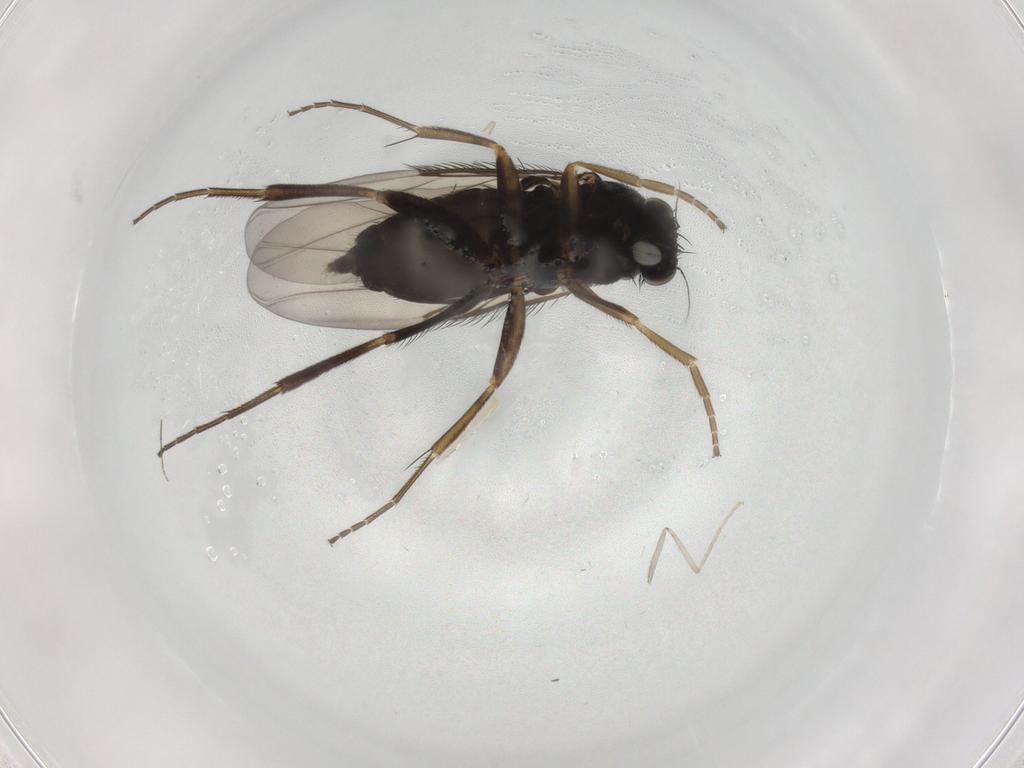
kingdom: Animalia
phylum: Arthropoda
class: Insecta
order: Diptera
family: Phoridae
